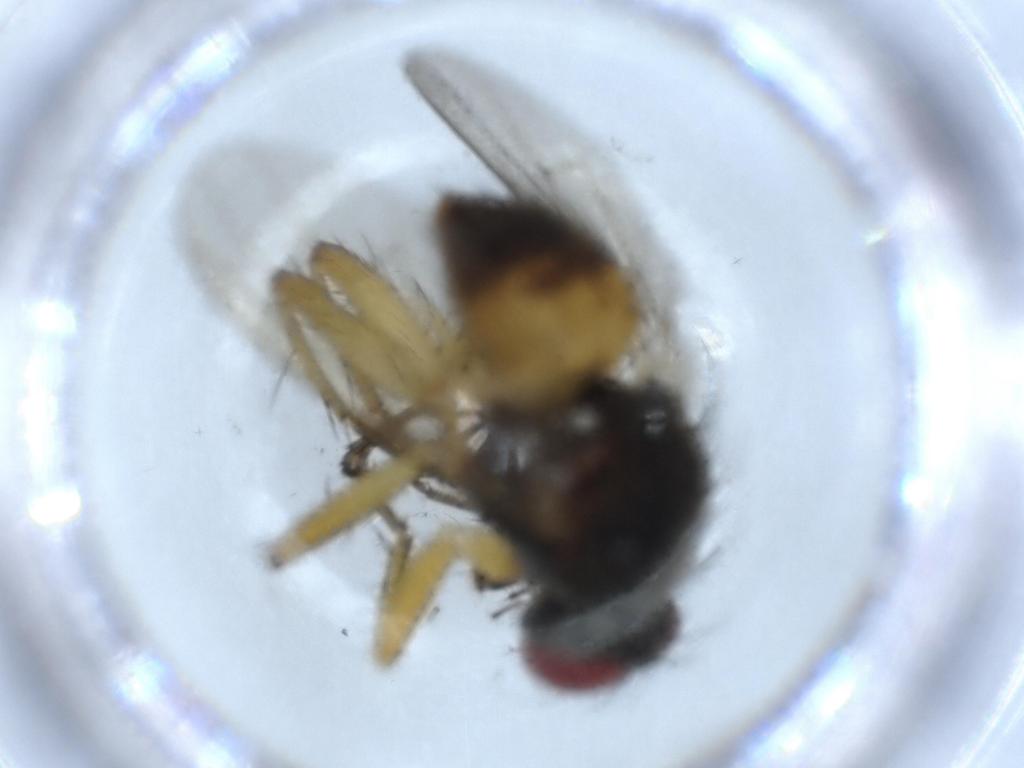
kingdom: Animalia
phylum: Arthropoda
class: Insecta
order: Diptera
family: Muscidae
